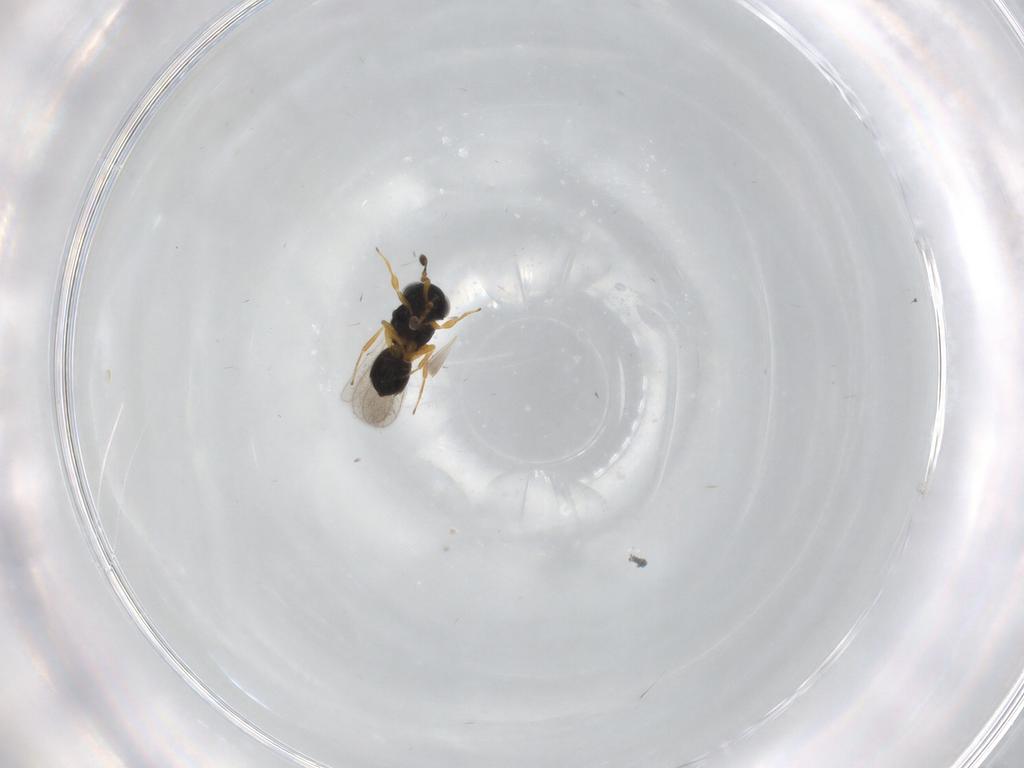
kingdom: Animalia
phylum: Arthropoda
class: Insecta
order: Hymenoptera
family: Scelionidae
